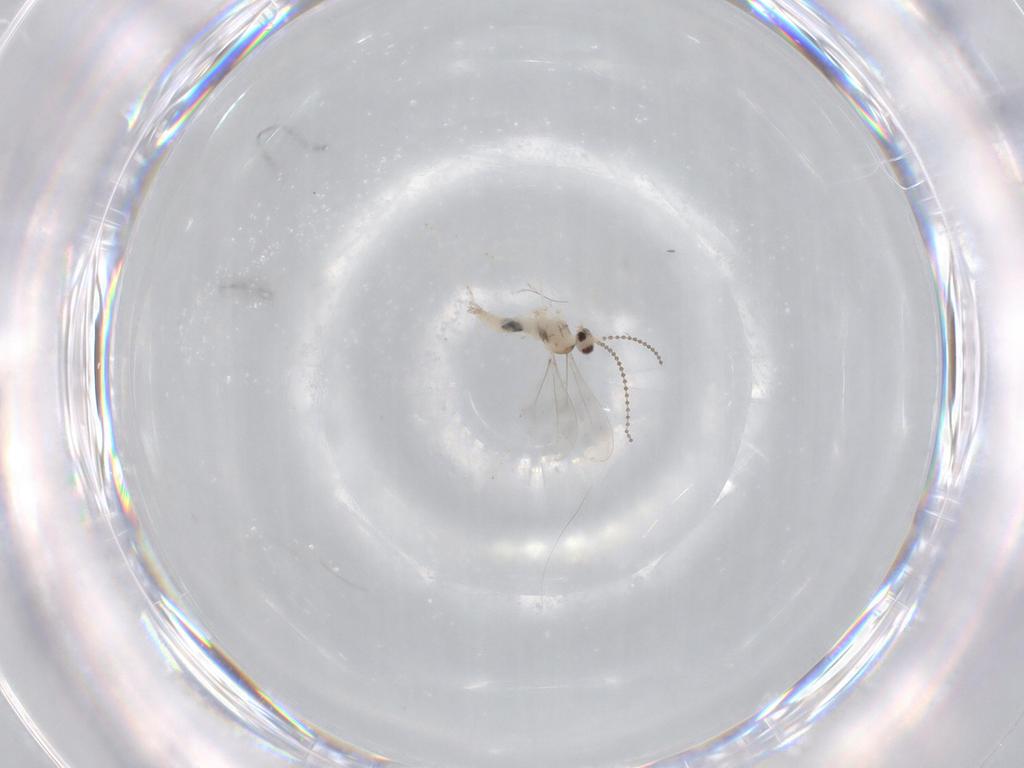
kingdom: Animalia
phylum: Arthropoda
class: Insecta
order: Diptera
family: Cecidomyiidae
